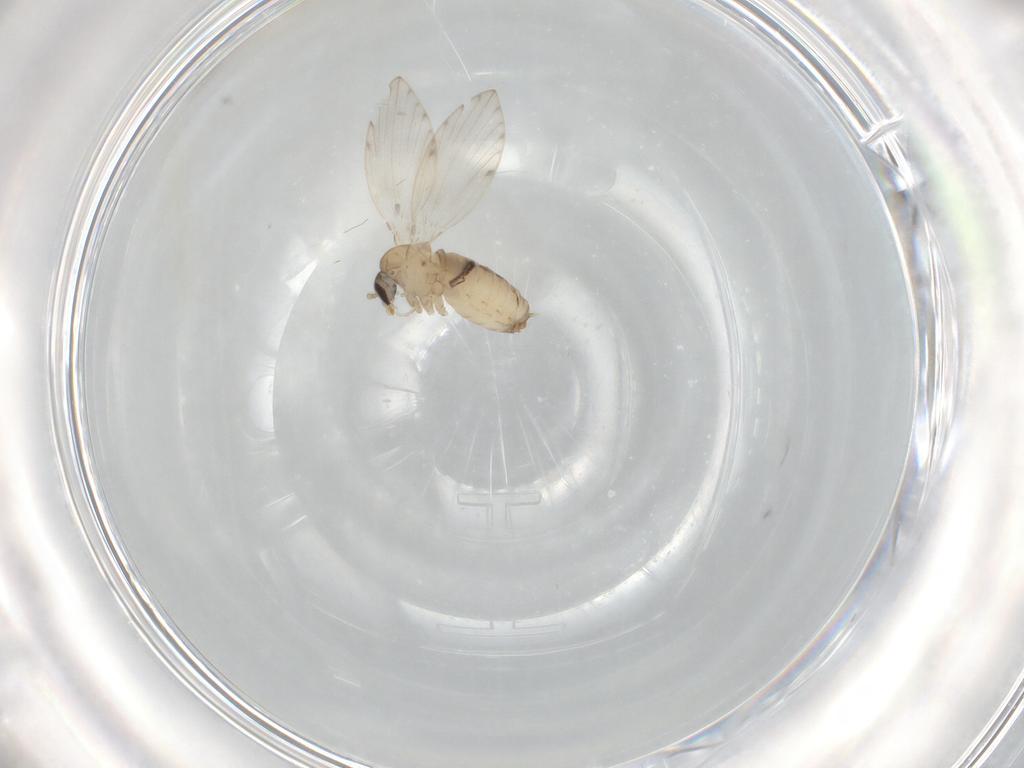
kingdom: Animalia
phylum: Arthropoda
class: Insecta
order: Diptera
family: Psychodidae
